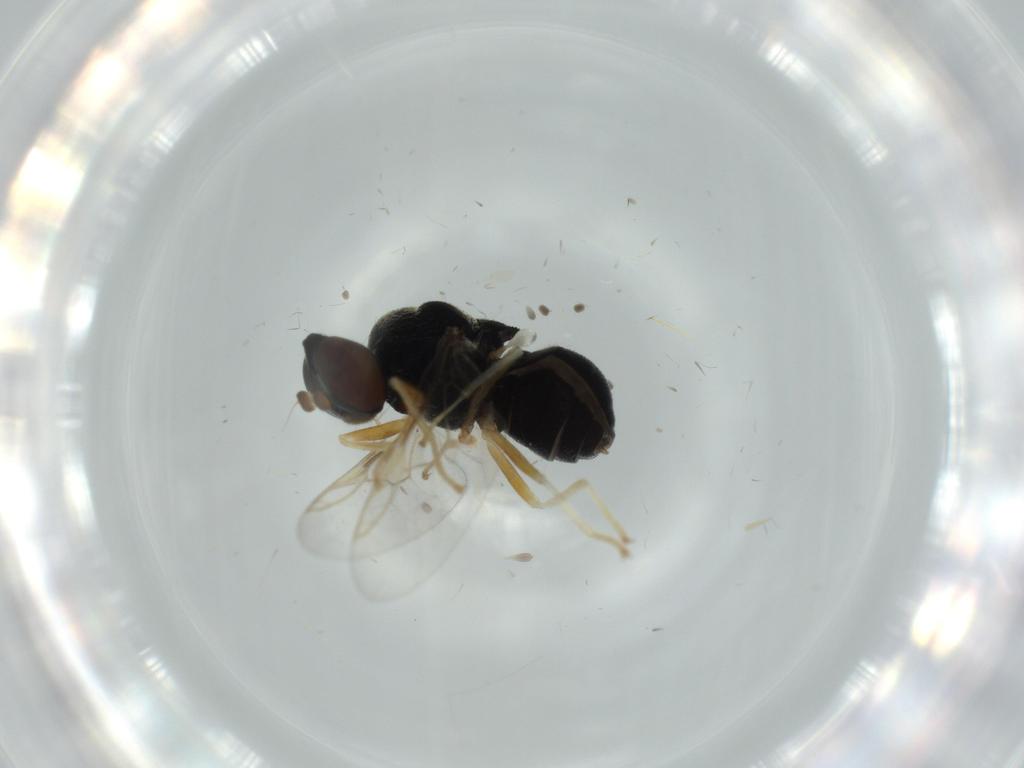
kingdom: Animalia
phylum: Arthropoda
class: Insecta
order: Diptera
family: Stratiomyidae
